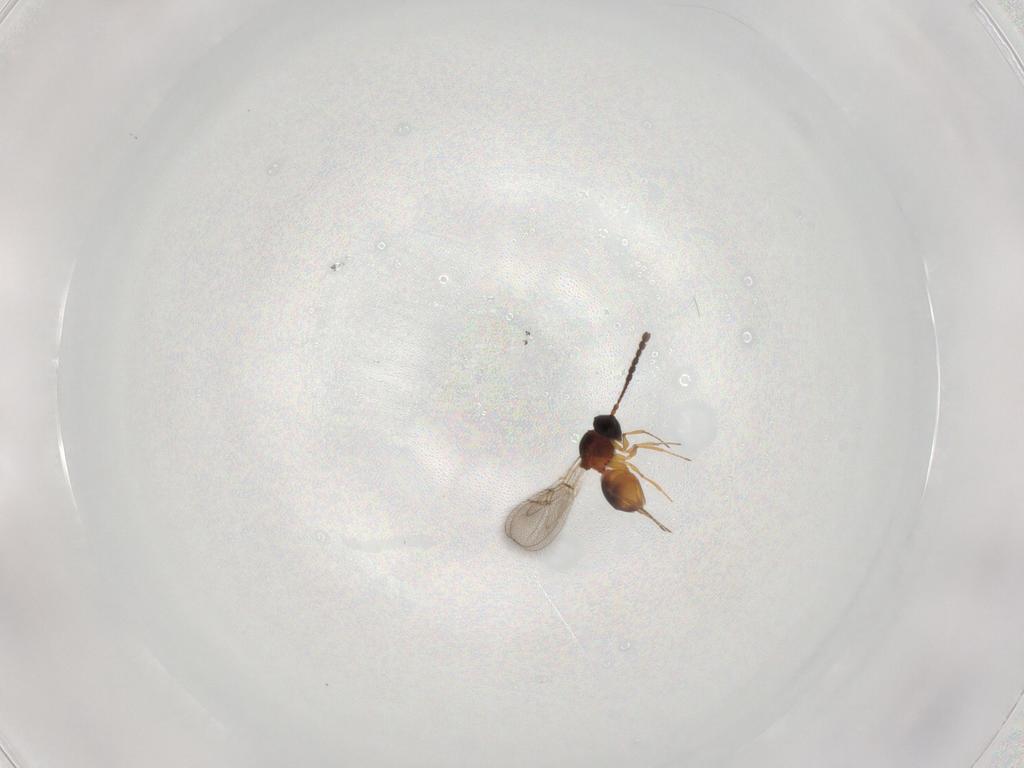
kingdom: Animalia
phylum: Arthropoda
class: Insecta
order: Hymenoptera
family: Figitidae
